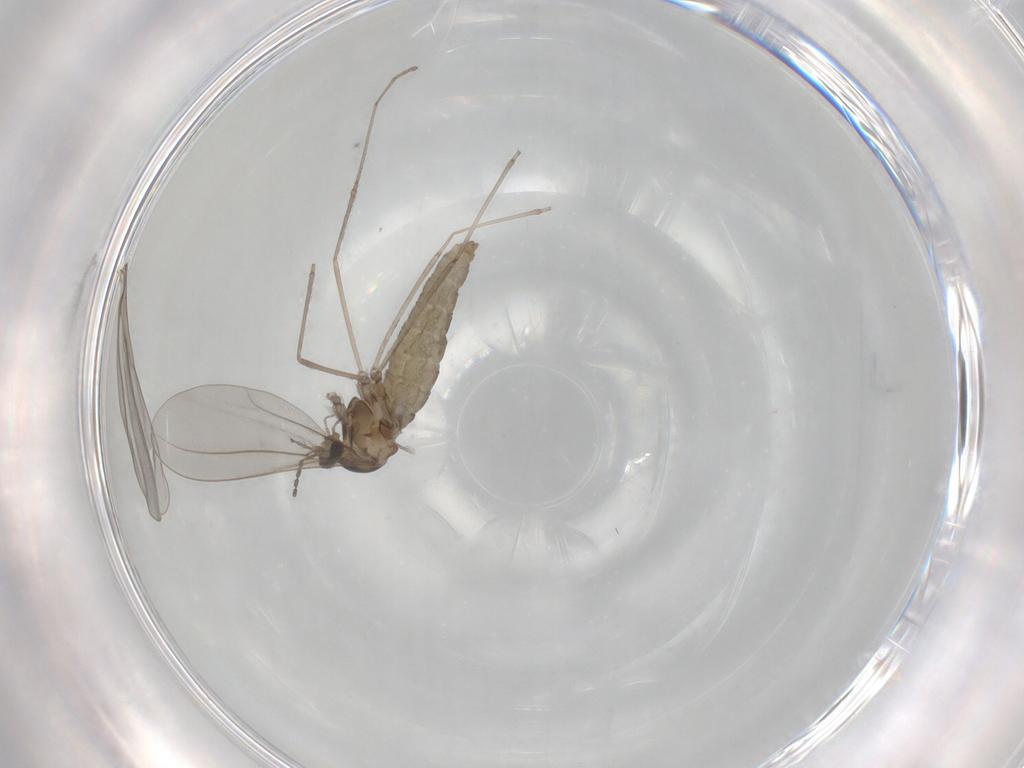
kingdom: Animalia
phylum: Arthropoda
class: Insecta
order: Diptera
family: Cecidomyiidae
